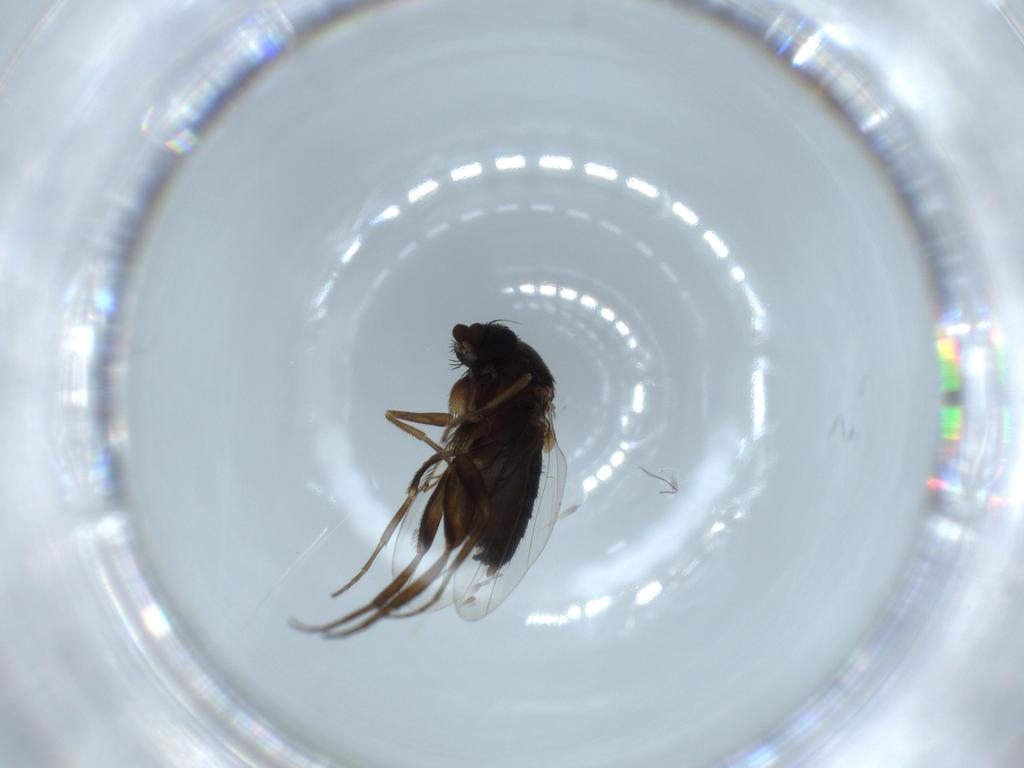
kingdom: Animalia
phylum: Arthropoda
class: Insecta
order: Diptera
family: Phoridae
